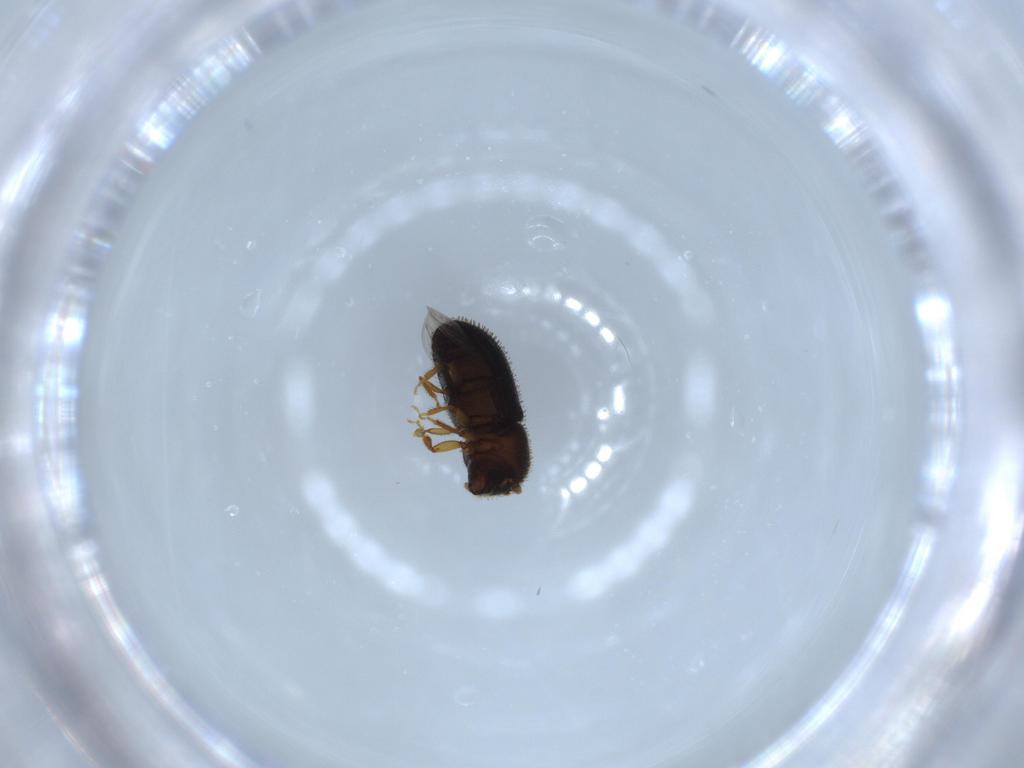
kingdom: Animalia
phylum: Arthropoda
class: Insecta
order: Coleoptera
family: Curculionidae
